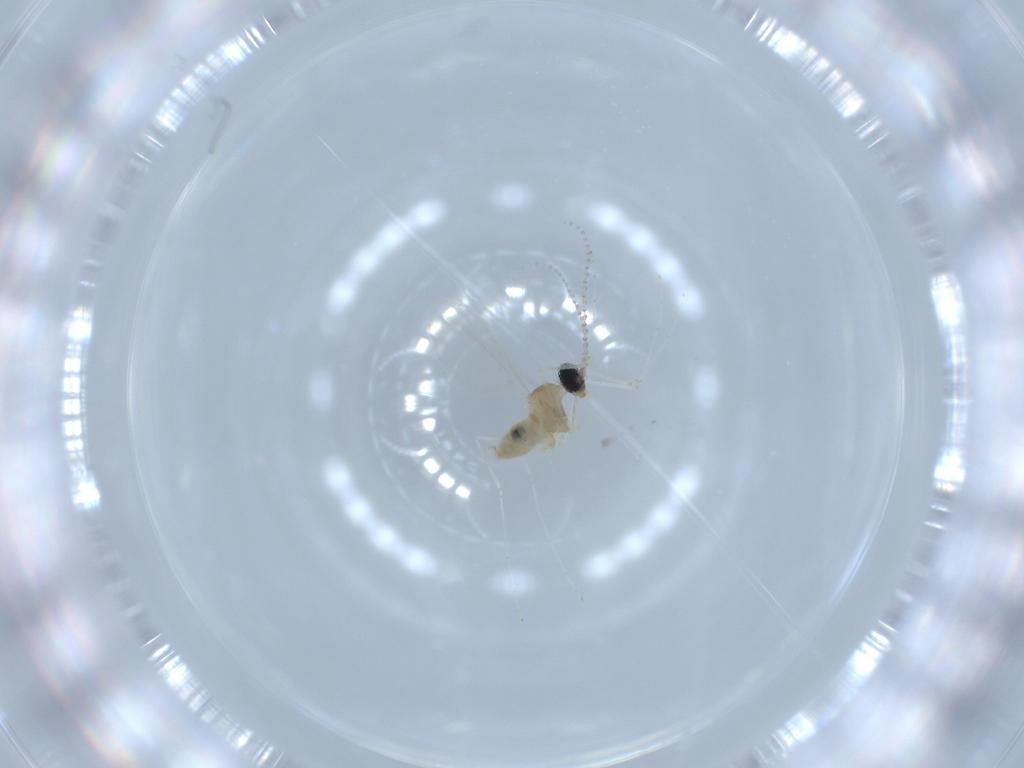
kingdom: Animalia
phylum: Arthropoda
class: Insecta
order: Diptera
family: Cecidomyiidae
